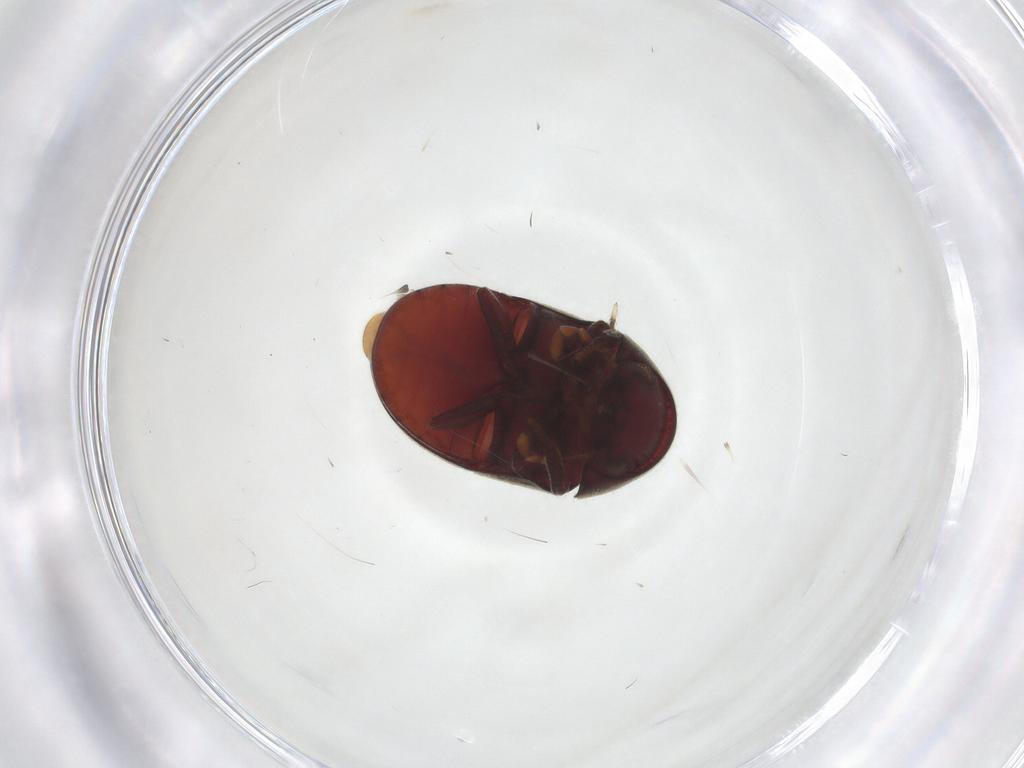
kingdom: Animalia
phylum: Arthropoda
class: Insecta
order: Coleoptera
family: Ptinidae
